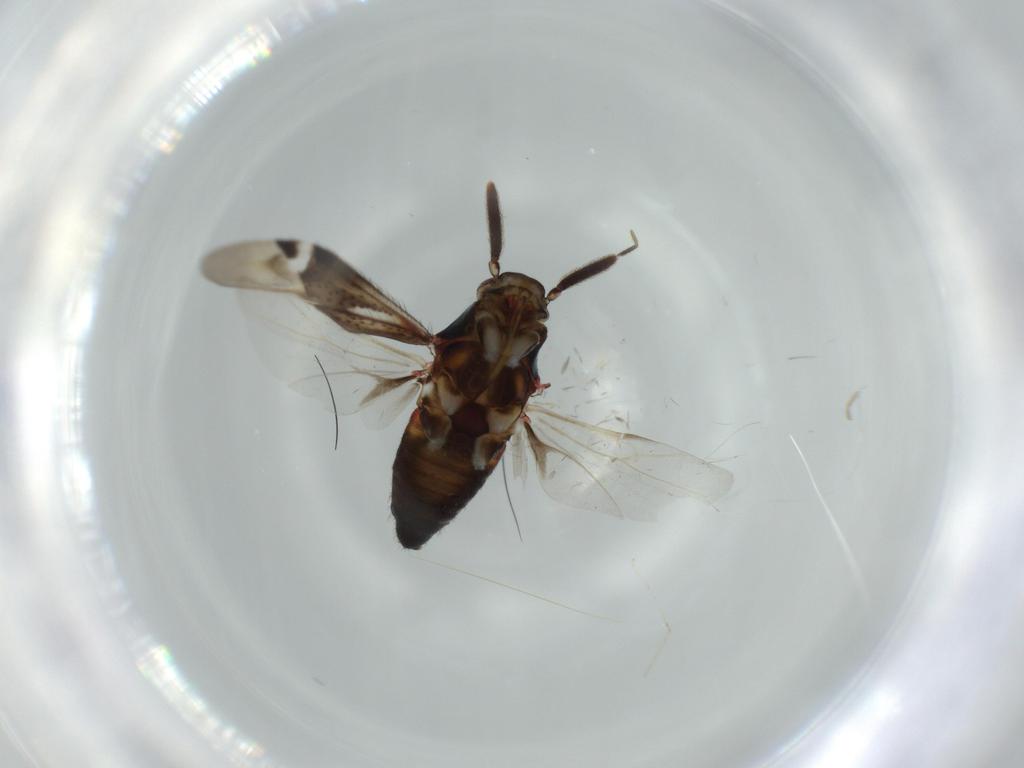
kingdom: Animalia
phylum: Arthropoda
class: Insecta
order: Hemiptera
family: Miridae
